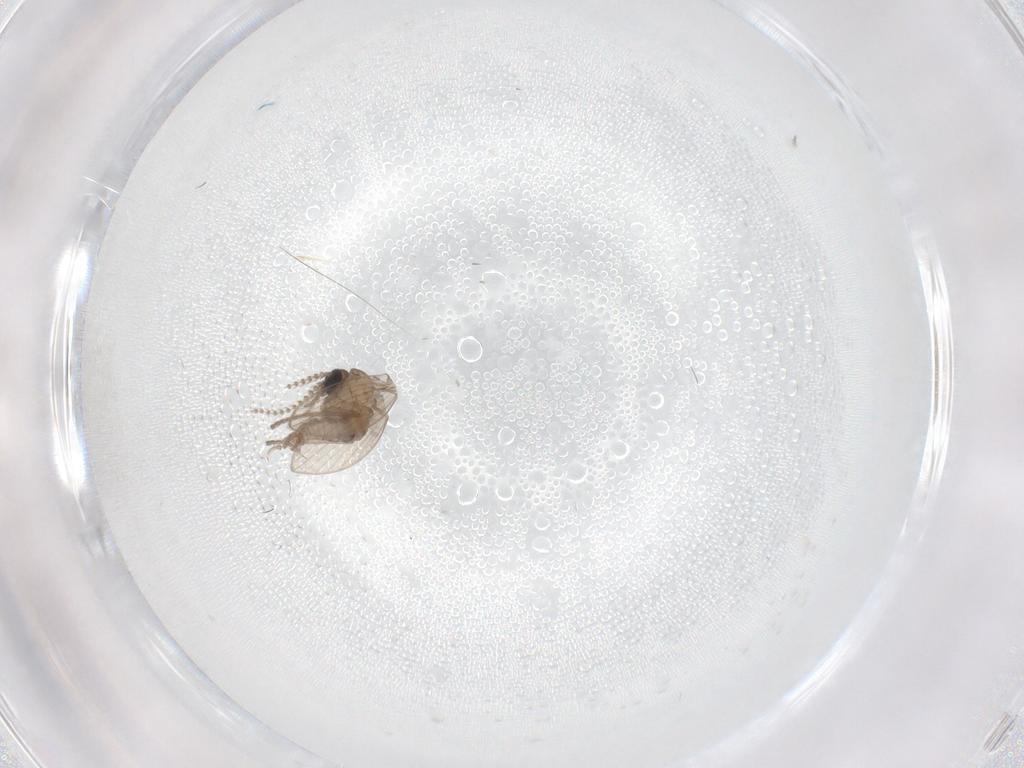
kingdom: Animalia
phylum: Arthropoda
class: Insecta
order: Diptera
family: Psychodidae
